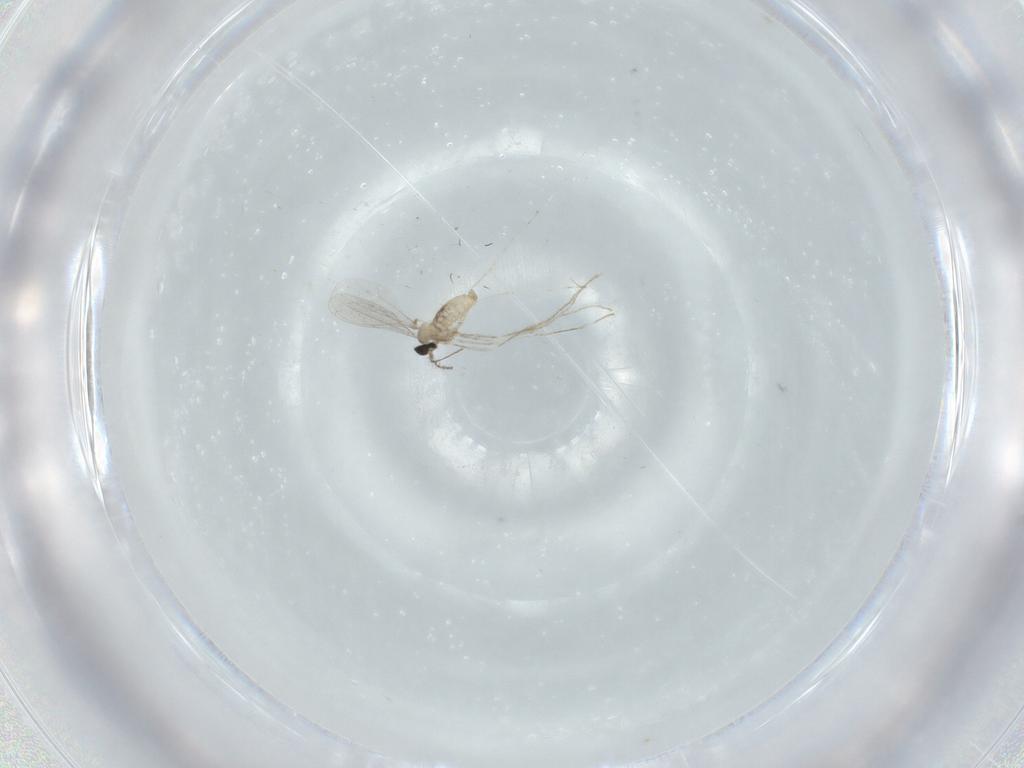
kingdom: Animalia
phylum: Arthropoda
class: Insecta
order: Diptera
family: Cecidomyiidae
